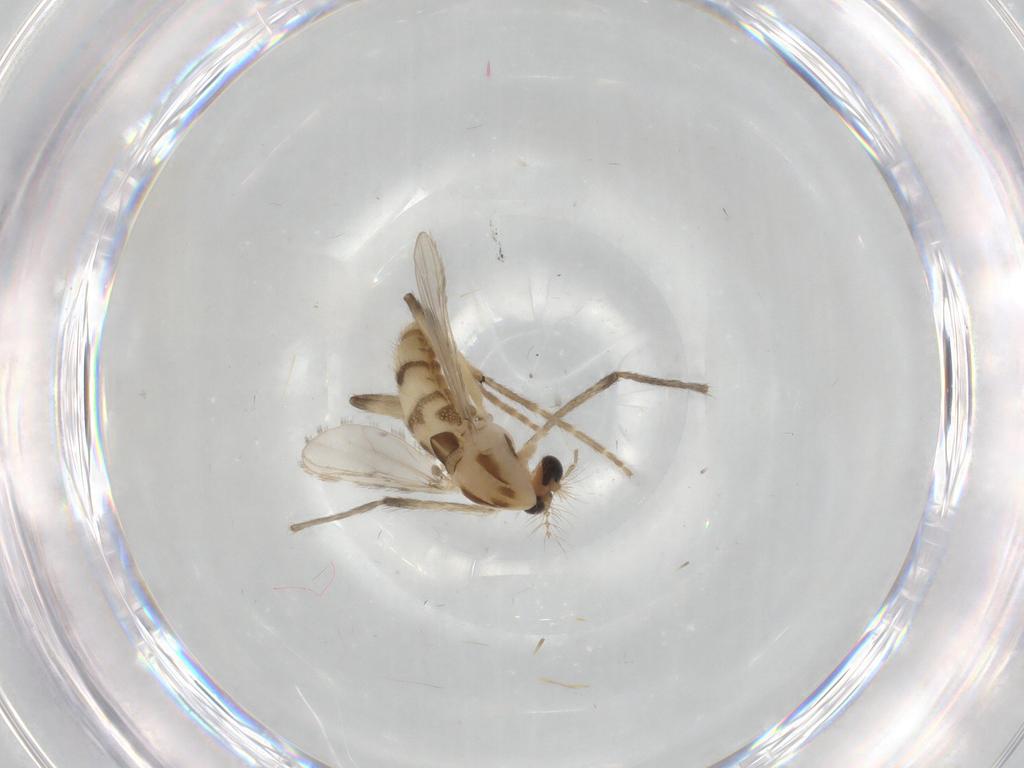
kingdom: Animalia
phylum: Arthropoda
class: Insecta
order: Diptera
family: Chironomidae
